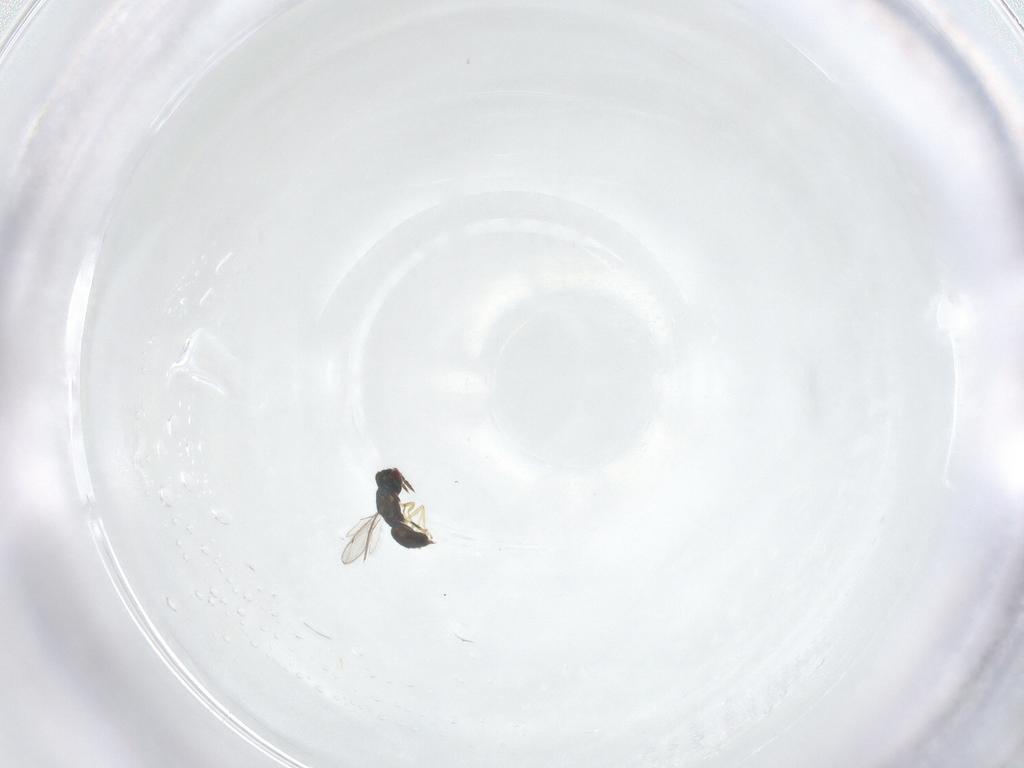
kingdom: Animalia
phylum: Arthropoda
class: Insecta
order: Hymenoptera
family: Eulophidae
